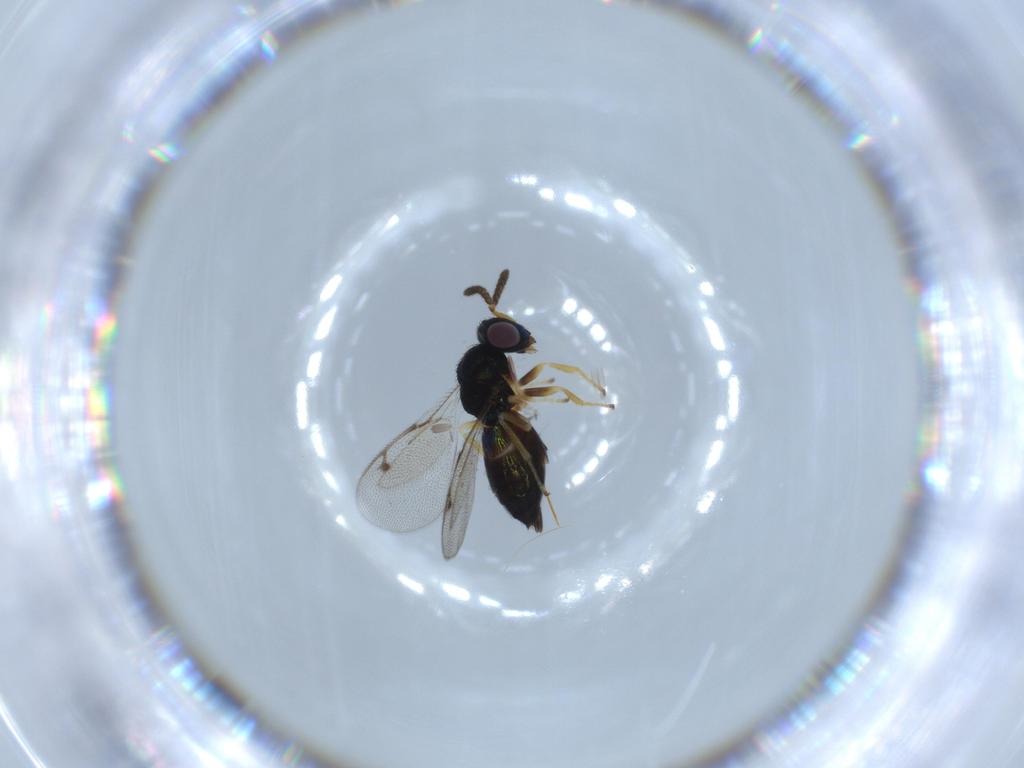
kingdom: Animalia
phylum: Arthropoda
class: Insecta
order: Hymenoptera
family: Pirenidae
